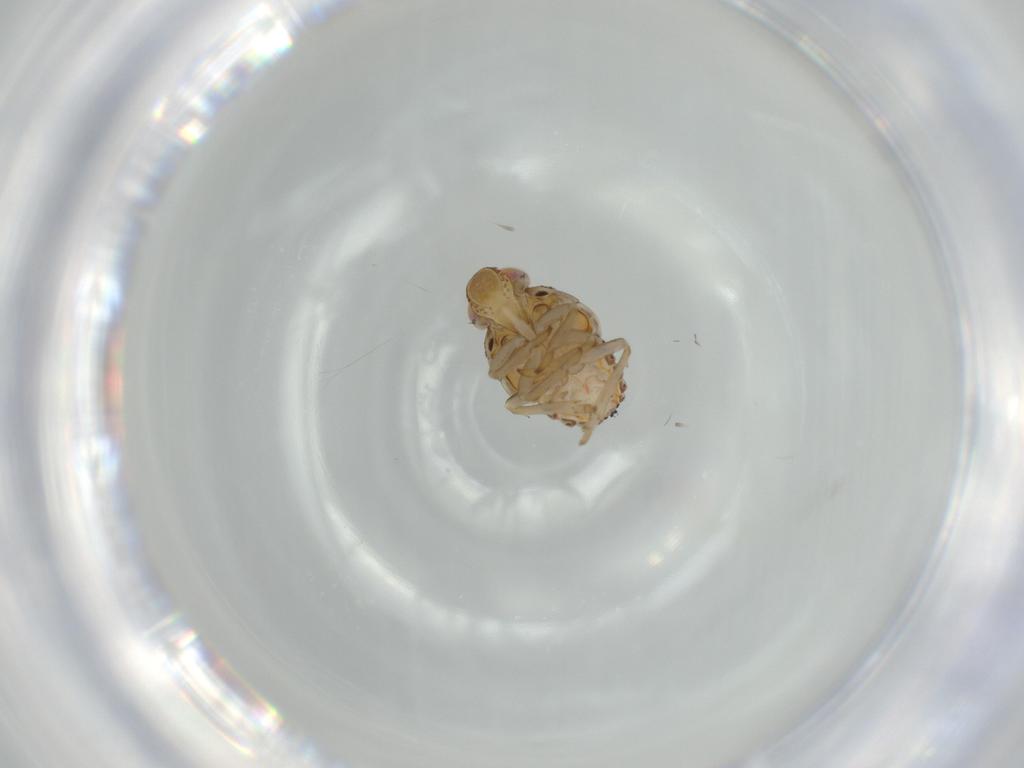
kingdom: Animalia
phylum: Arthropoda
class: Insecta
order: Hemiptera
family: Issidae
